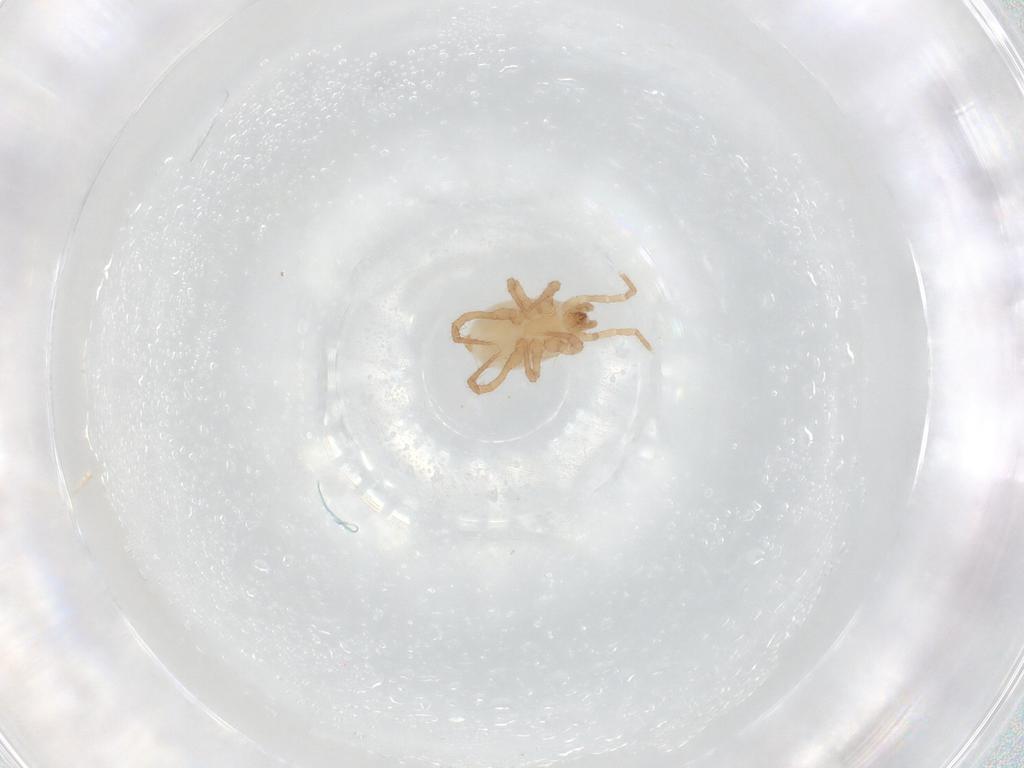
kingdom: Animalia
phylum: Arthropoda
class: Arachnida
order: Mesostigmata
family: Parasitidae
